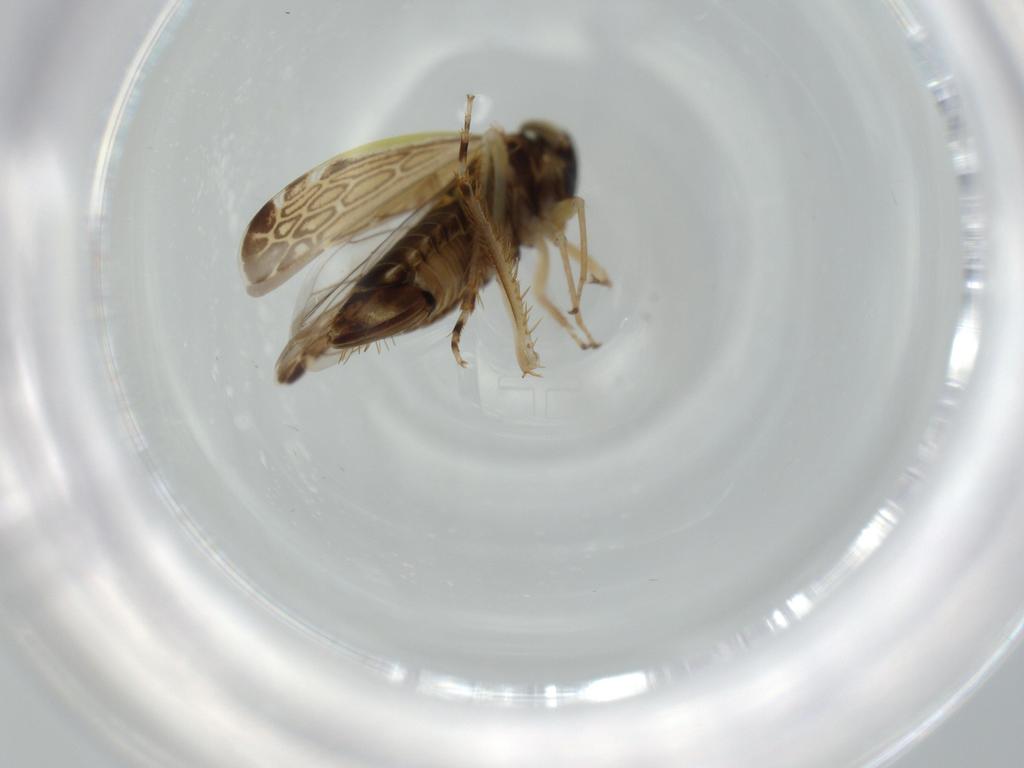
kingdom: Animalia
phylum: Arthropoda
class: Insecta
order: Hemiptera
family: Cicadellidae
